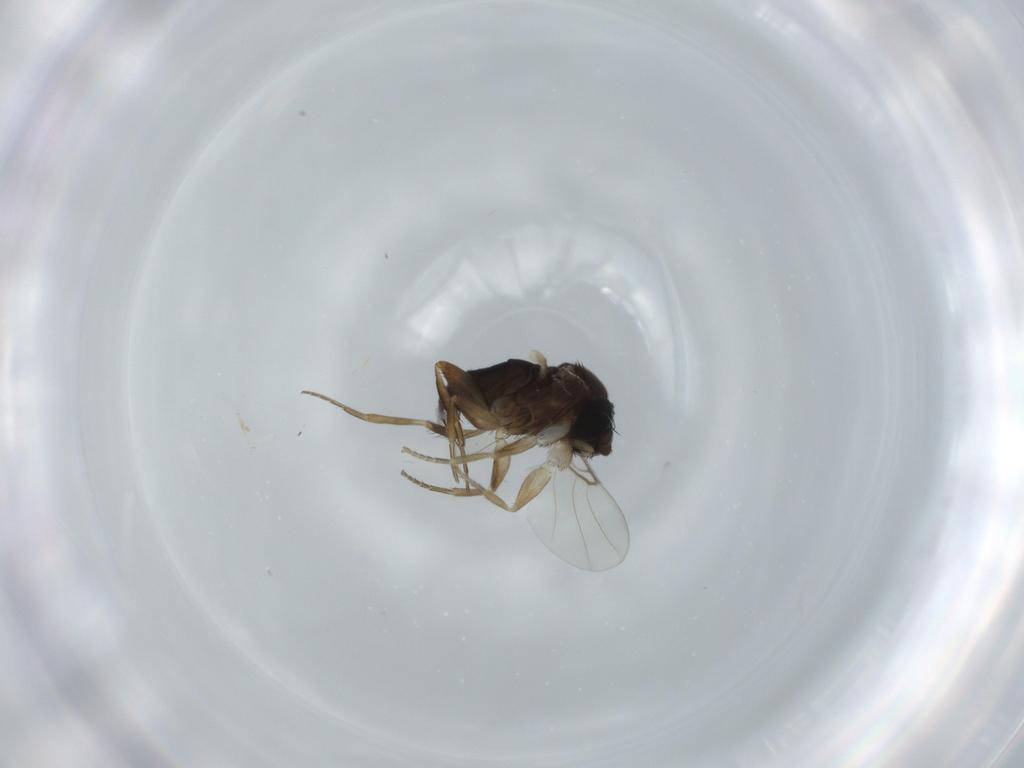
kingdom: Animalia
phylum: Arthropoda
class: Insecta
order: Diptera
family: Phoridae
